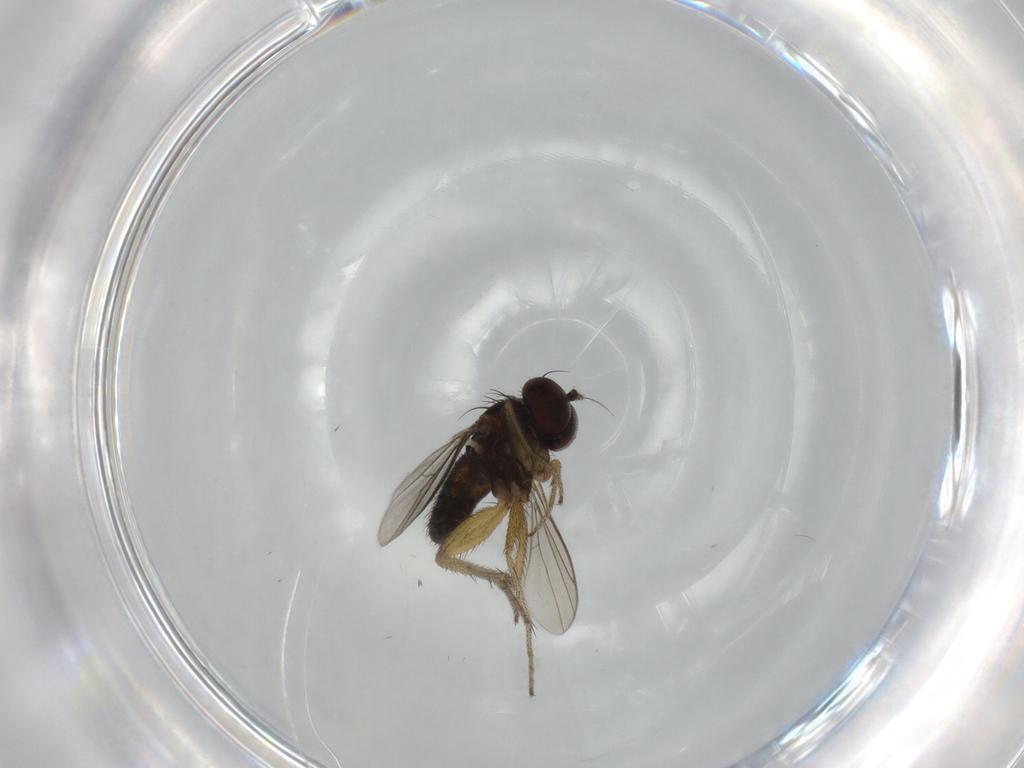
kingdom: Animalia
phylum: Arthropoda
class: Insecta
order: Diptera
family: Micropezidae
